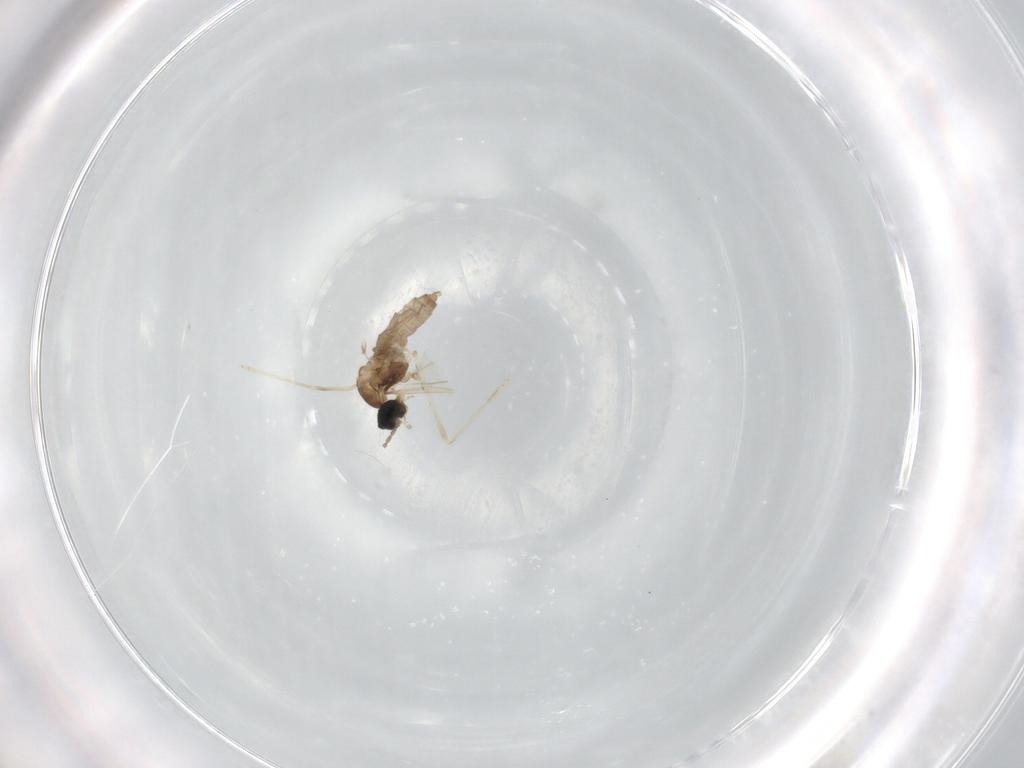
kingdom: Animalia
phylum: Arthropoda
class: Insecta
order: Diptera
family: Cecidomyiidae
